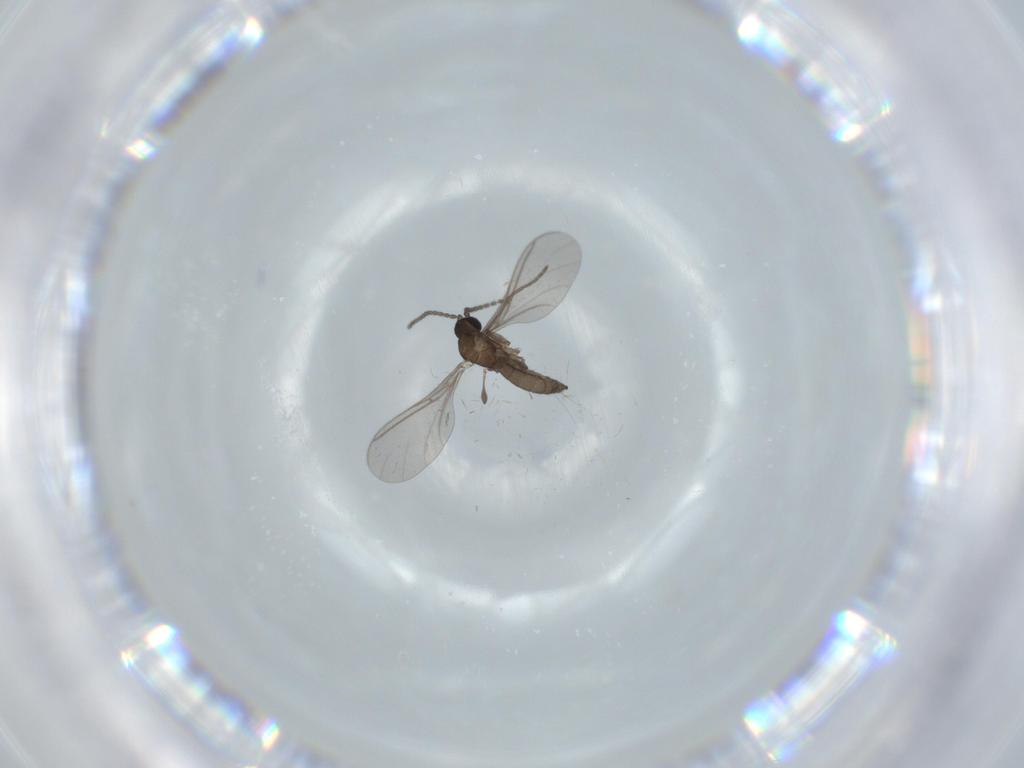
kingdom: Animalia
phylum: Arthropoda
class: Insecta
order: Diptera
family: Sciaridae
